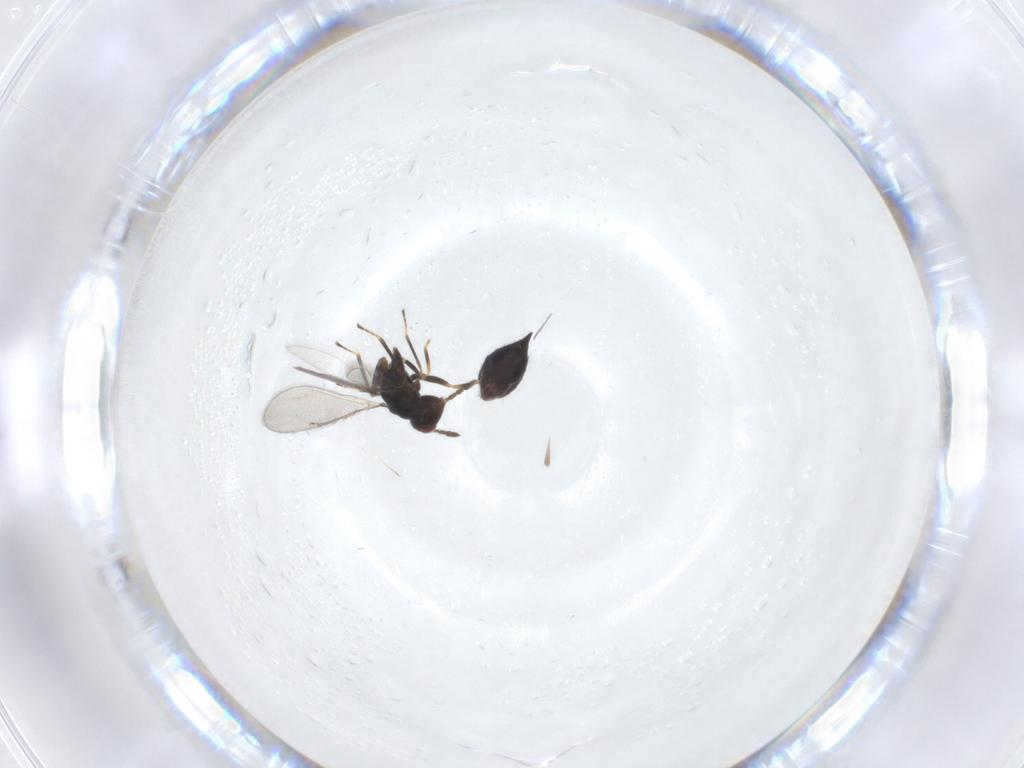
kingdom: Animalia
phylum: Arthropoda
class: Insecta
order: Hymenoptera
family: Eulophidae
